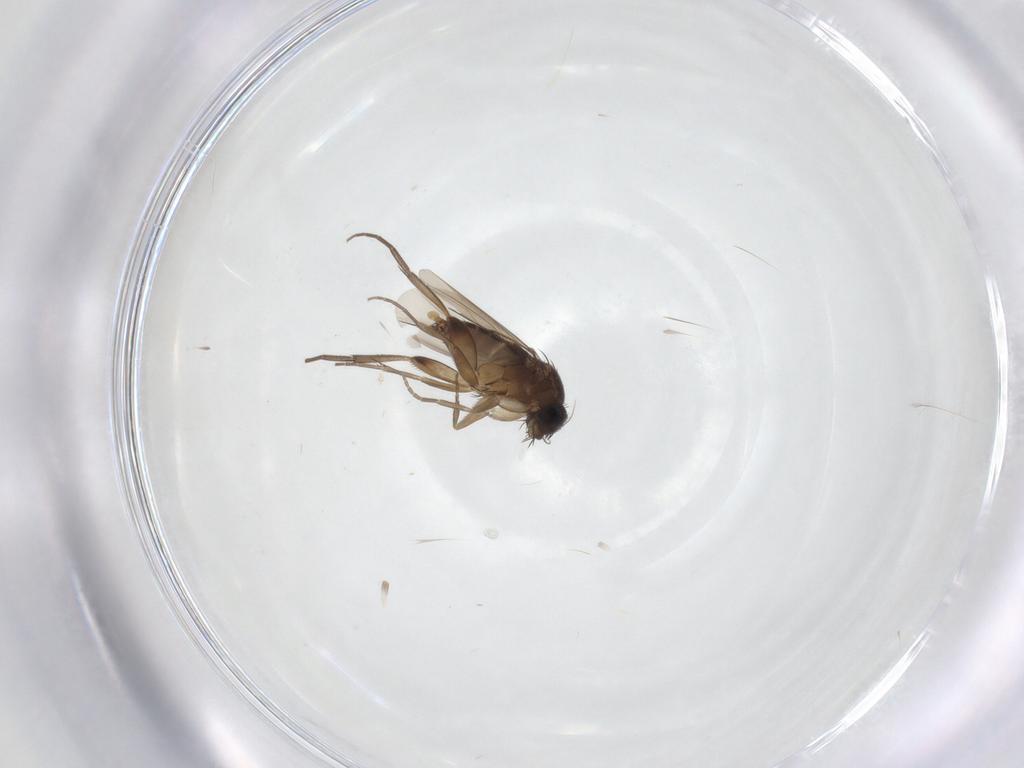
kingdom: Animalia
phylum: Arthropoda
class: Insecta
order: Diptera
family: Phoridae
